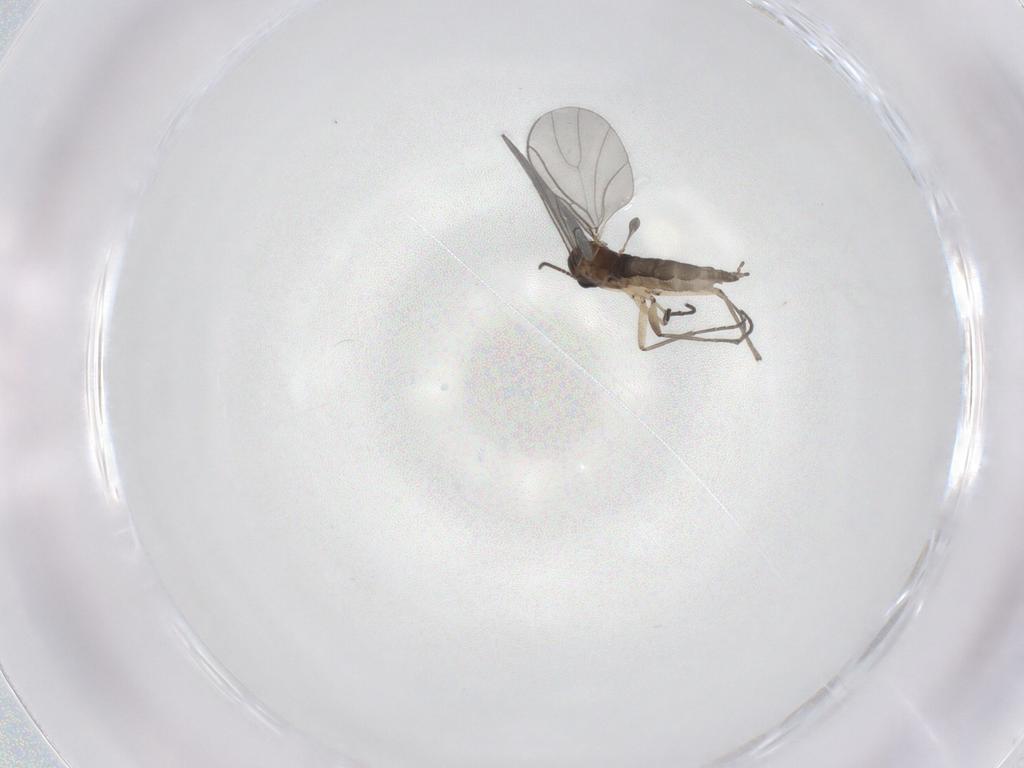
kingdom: Animalia
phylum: Arthropoda
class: Insecta
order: Diptera
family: Sciaridae
